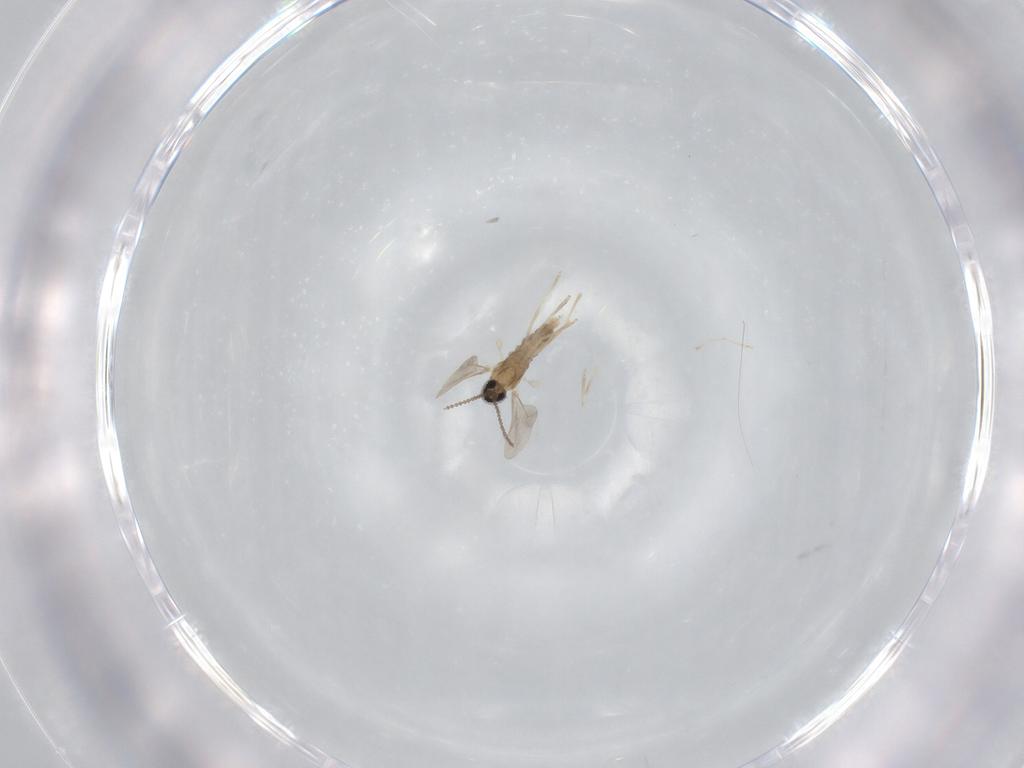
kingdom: Animalia
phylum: Arthropoda
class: Insecta
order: Diptera
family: Cecidomyiidae
